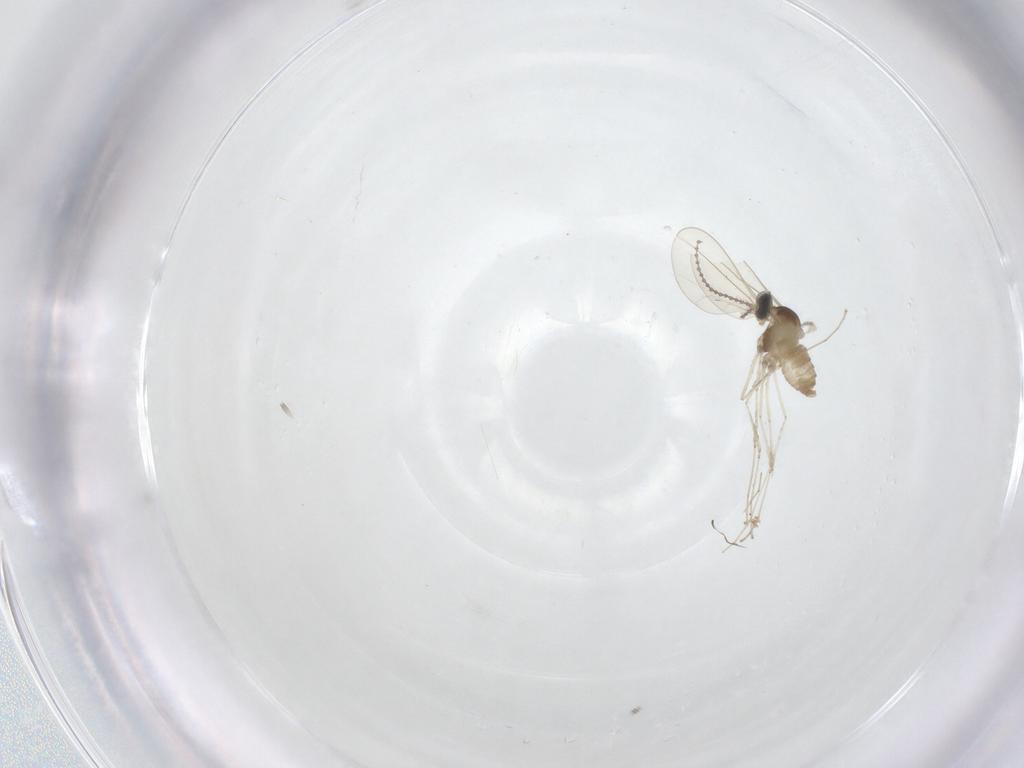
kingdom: Animalia
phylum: Arthropoda
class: Insecta
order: Diptera
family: Cecidomyiidae
